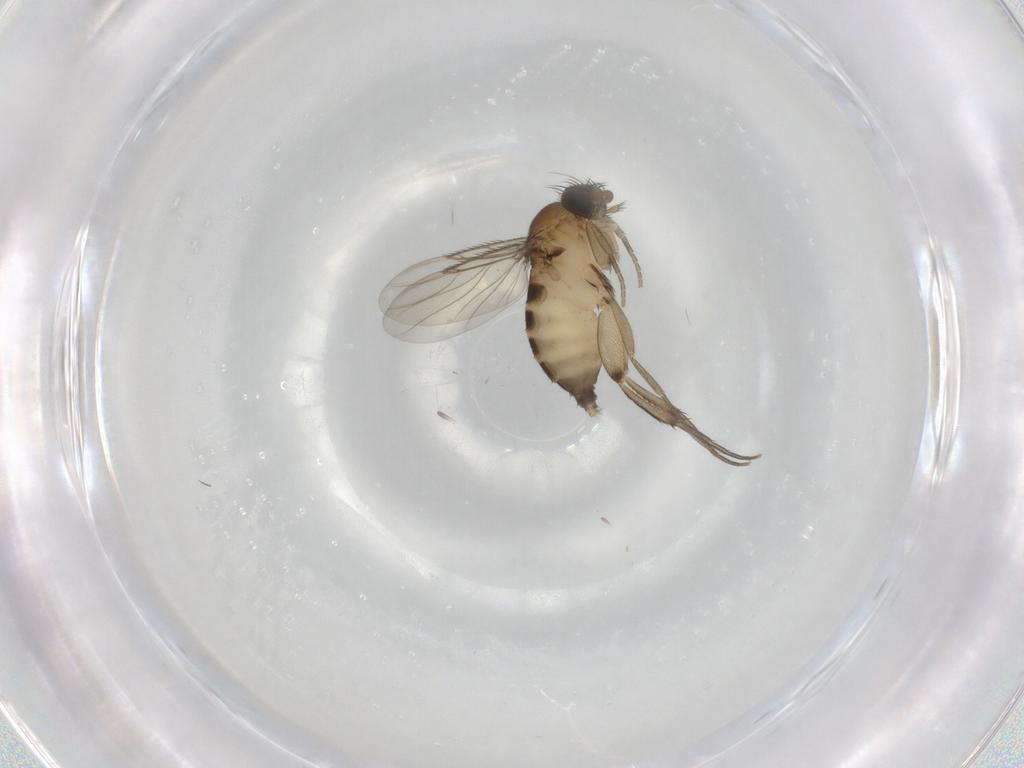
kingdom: Animalia
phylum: Arthropoda
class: Insecta
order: Diptera
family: Phoridae
